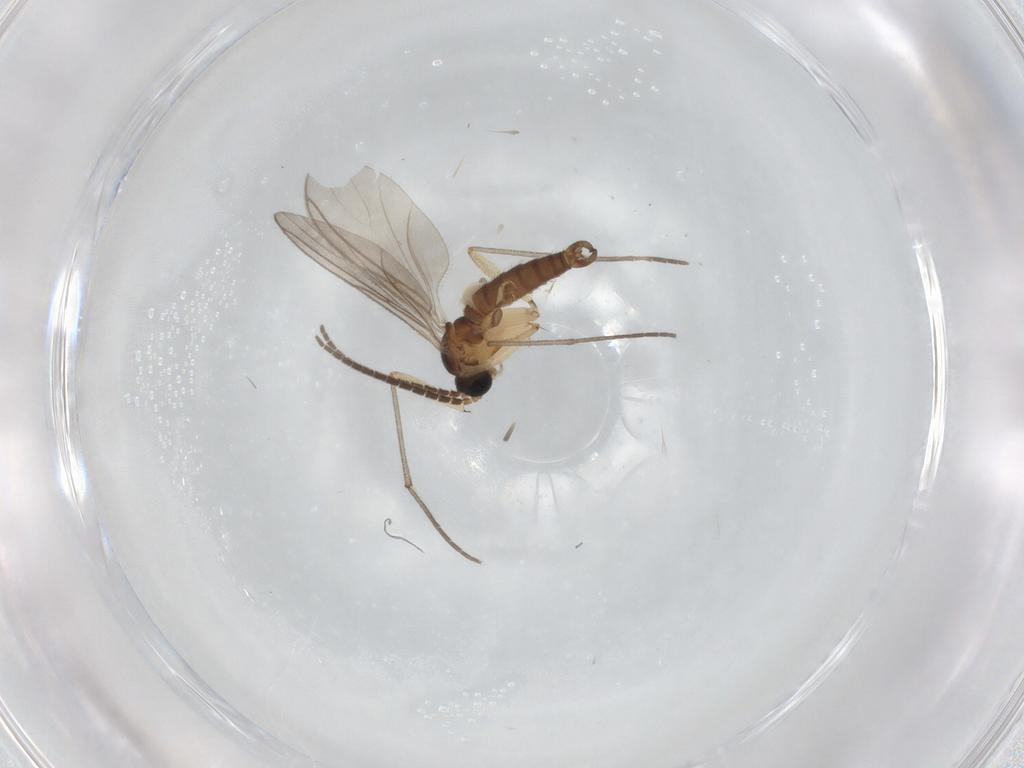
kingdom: Animalia
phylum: Arthropoda
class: Insecta
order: Diptera
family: Sciaridae
